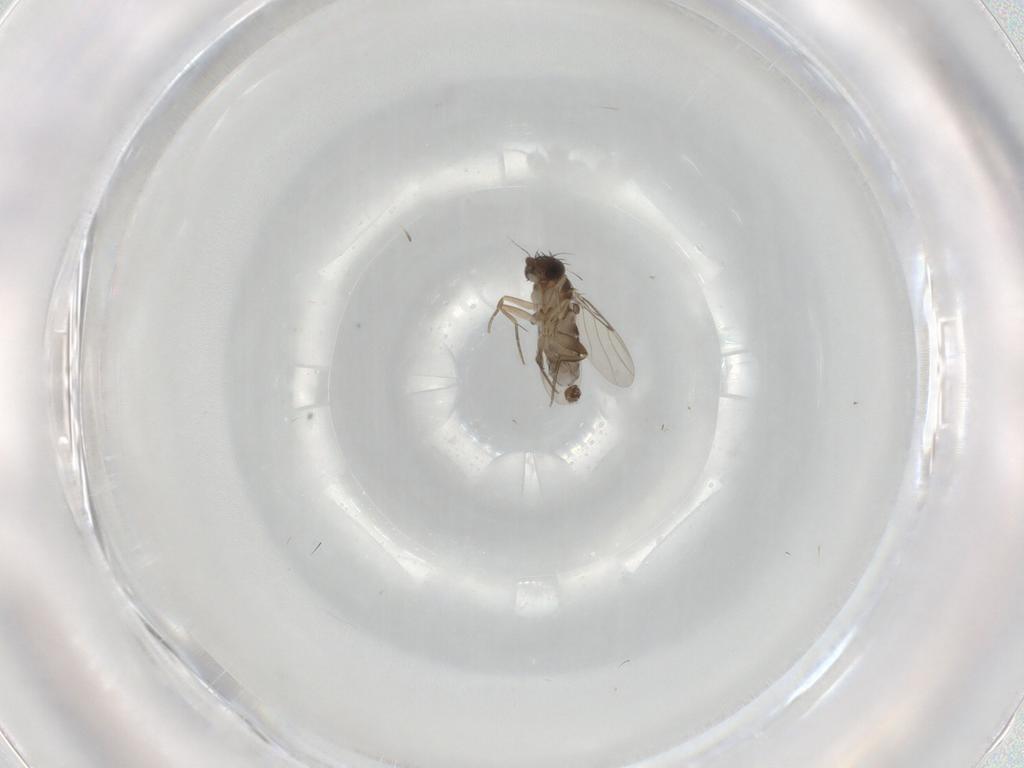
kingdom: Animalia
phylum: Arthropoda
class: Insecta
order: Diptera
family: Phoridae
